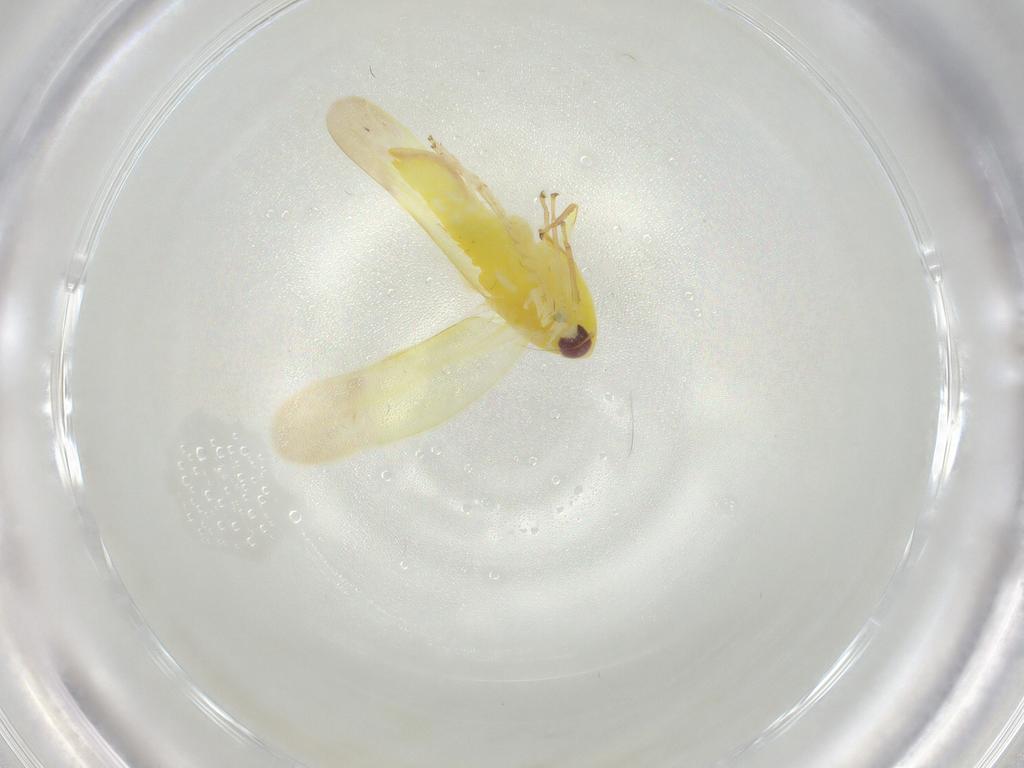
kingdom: Animalia
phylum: Arthropoda
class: Insecta
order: Hemiptera
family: Cicadellidae
